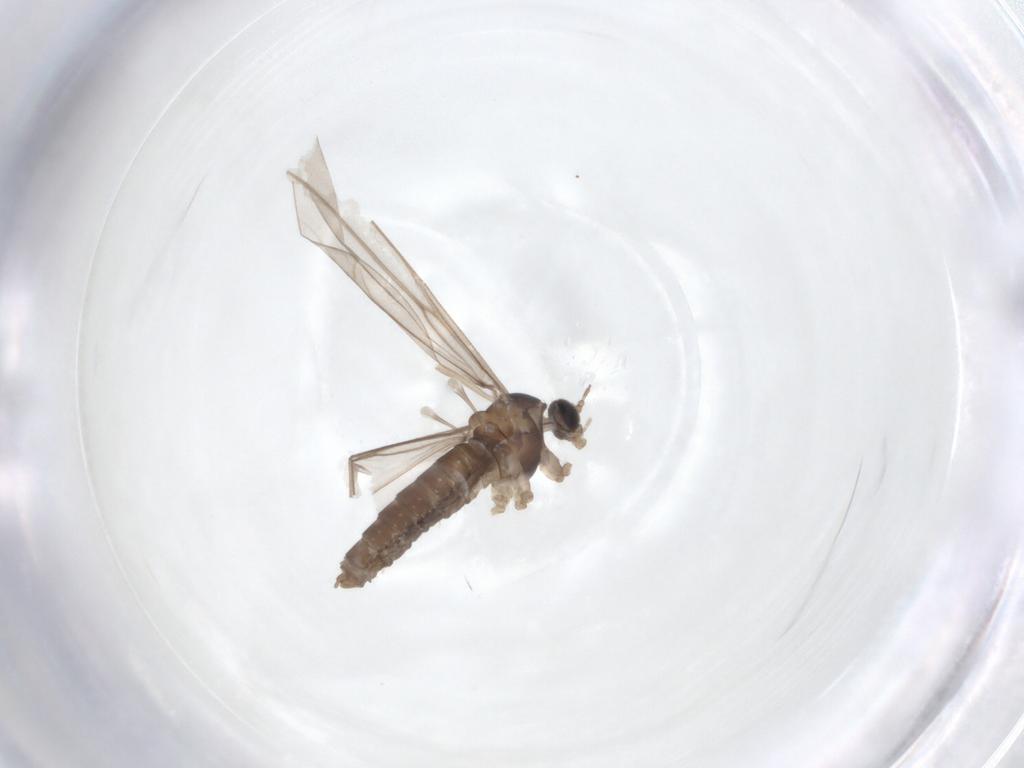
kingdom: Animalia
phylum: Arthropoda
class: Insecta
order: Diptera
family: Cecidomyiidae
